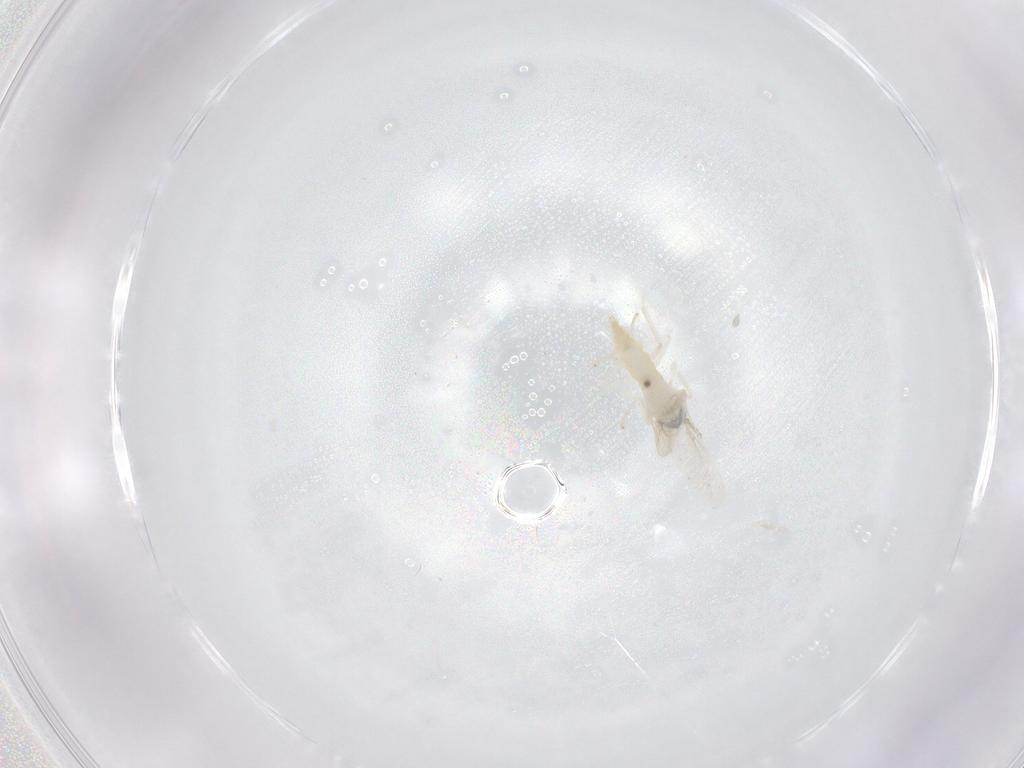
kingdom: Animalia
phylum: Arthropoda
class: Insecta
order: Diptera
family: Cecidomyiidae
